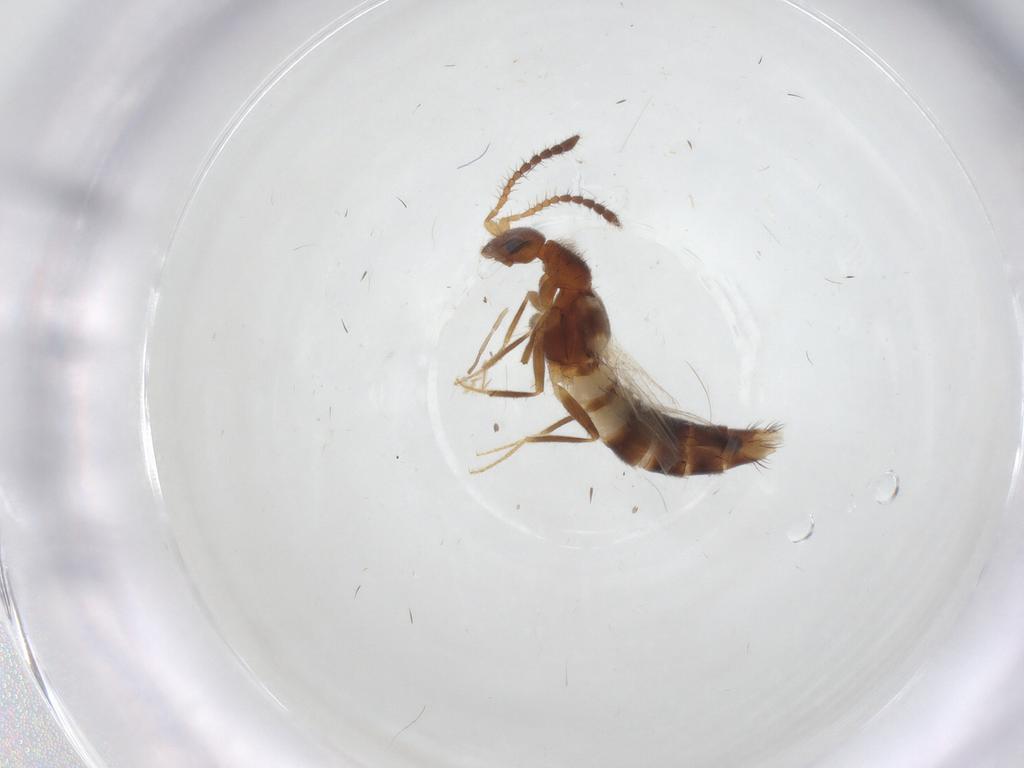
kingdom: Animalia
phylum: Arthropoda
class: Insecta
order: Coleoptera
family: Staphylinidae
